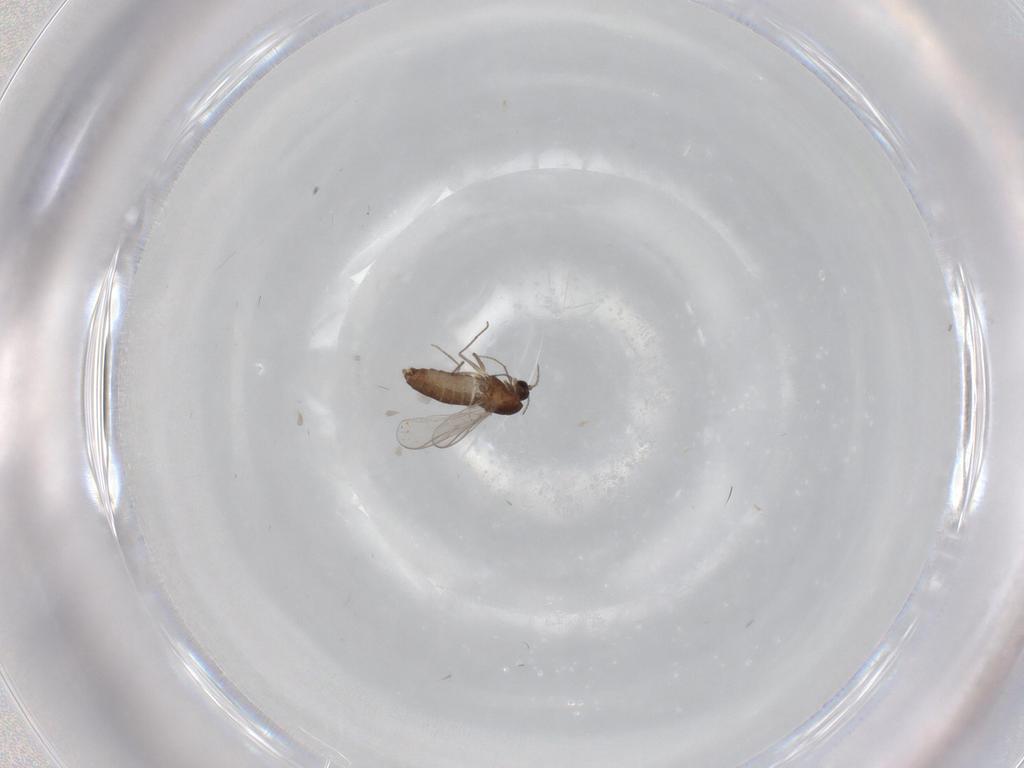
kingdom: Animalia
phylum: Arthropoda
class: Insecta
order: Diptera
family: Chironomidae
